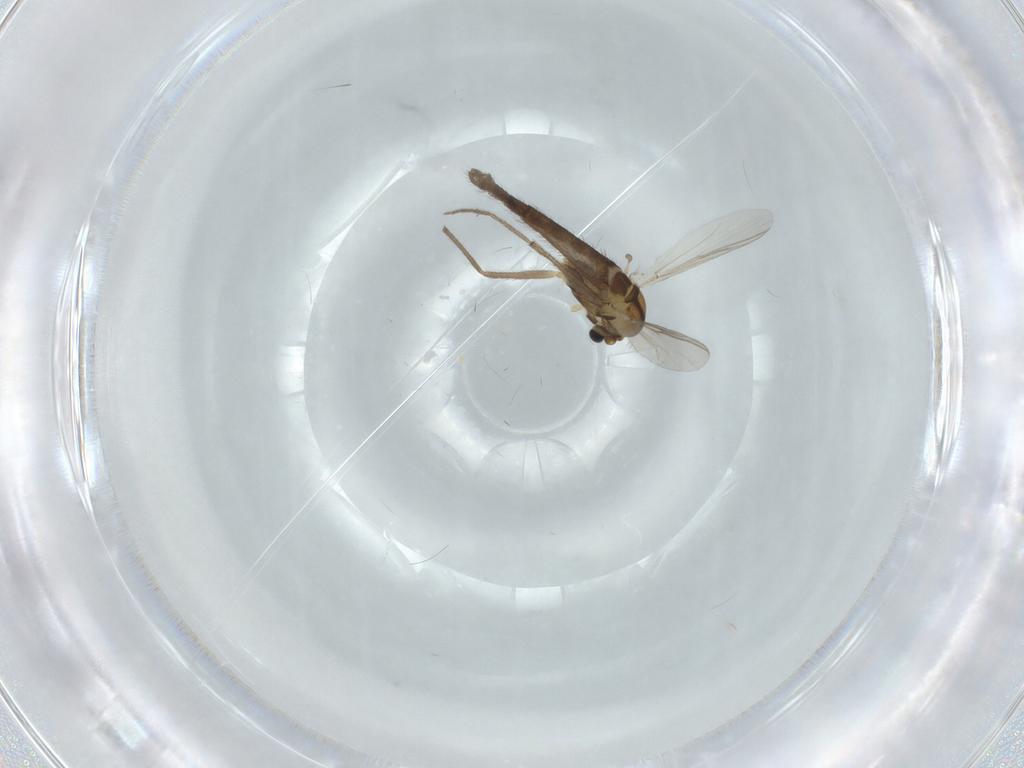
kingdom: Animalia
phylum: Arthropoda
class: Insecta
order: Diptera
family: Chironomidae
